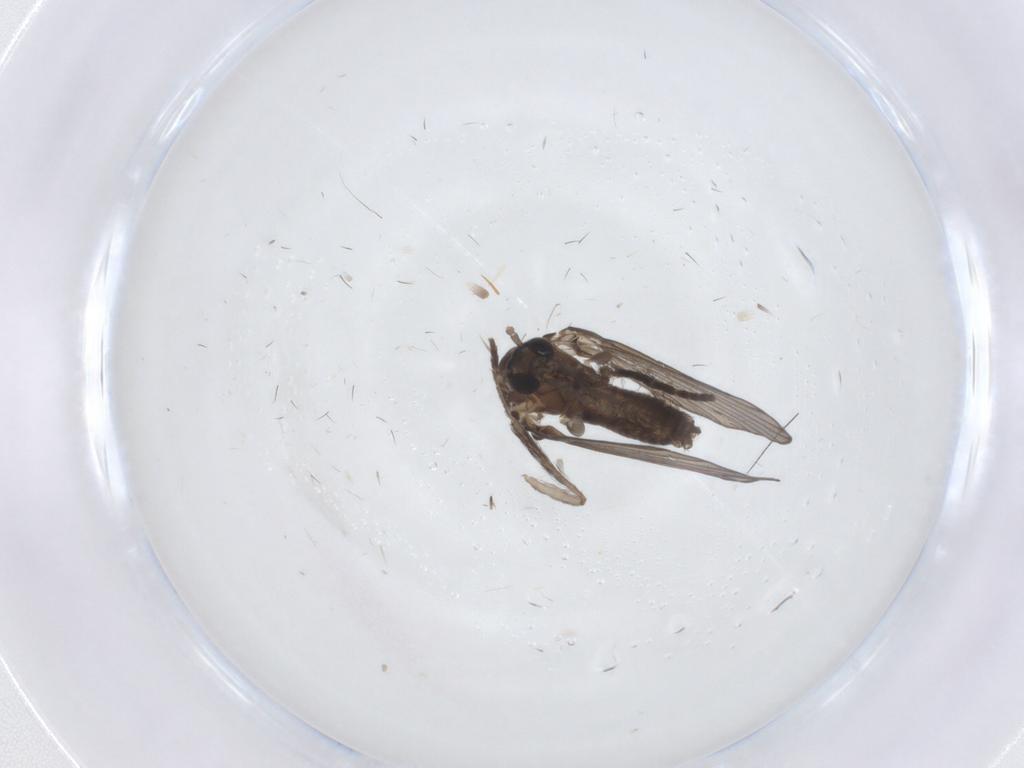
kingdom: Animalia
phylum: Arthropoda
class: Insecta
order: Diptera
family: Psychodidae
